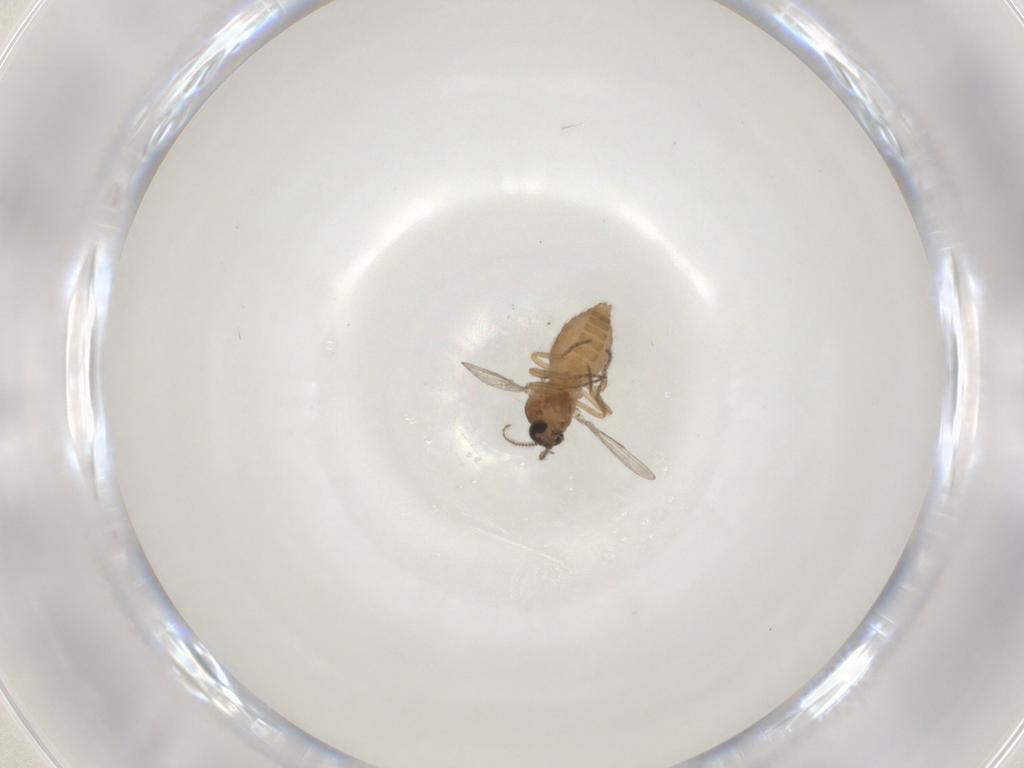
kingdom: Animalia
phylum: Arthropoda
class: Insecta
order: Diptera
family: Ceratopogonidae
